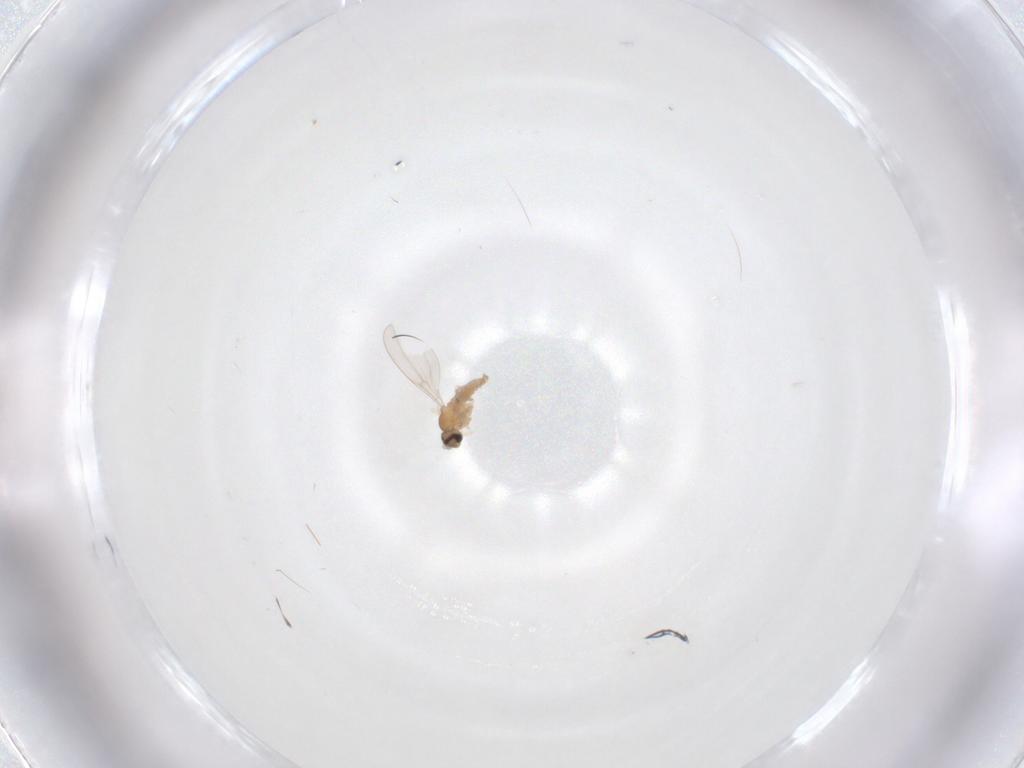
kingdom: Animalia
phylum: Arthropoda
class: Insecta
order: Diptera
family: Cecidomyiidae
